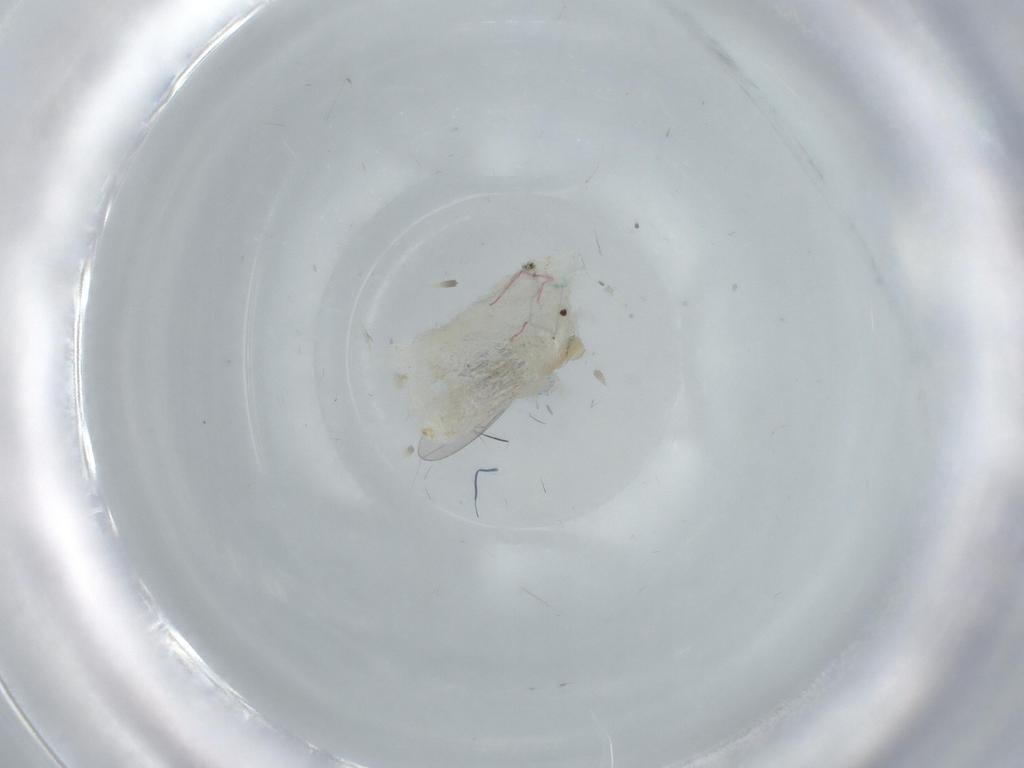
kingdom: Animalia
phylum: Arthropoda
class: Insecta
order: Diptera
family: Cecidomyiidae
